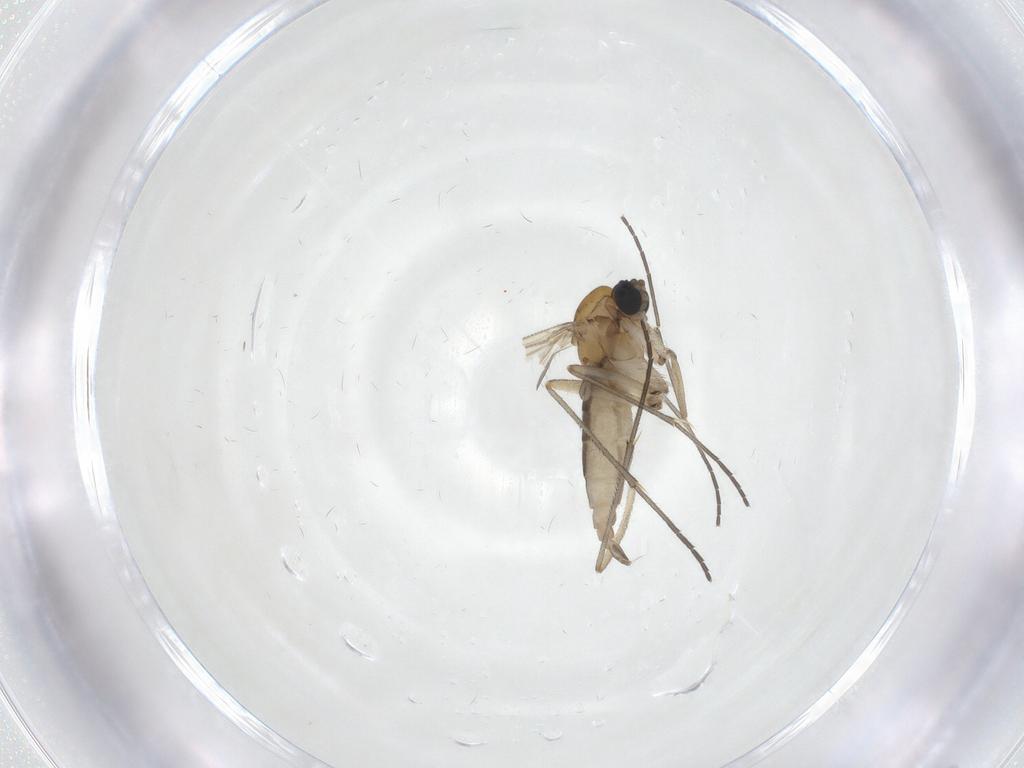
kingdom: Animalia
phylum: Arthropoda
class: Insecta
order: Diptera
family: Sciaridae
